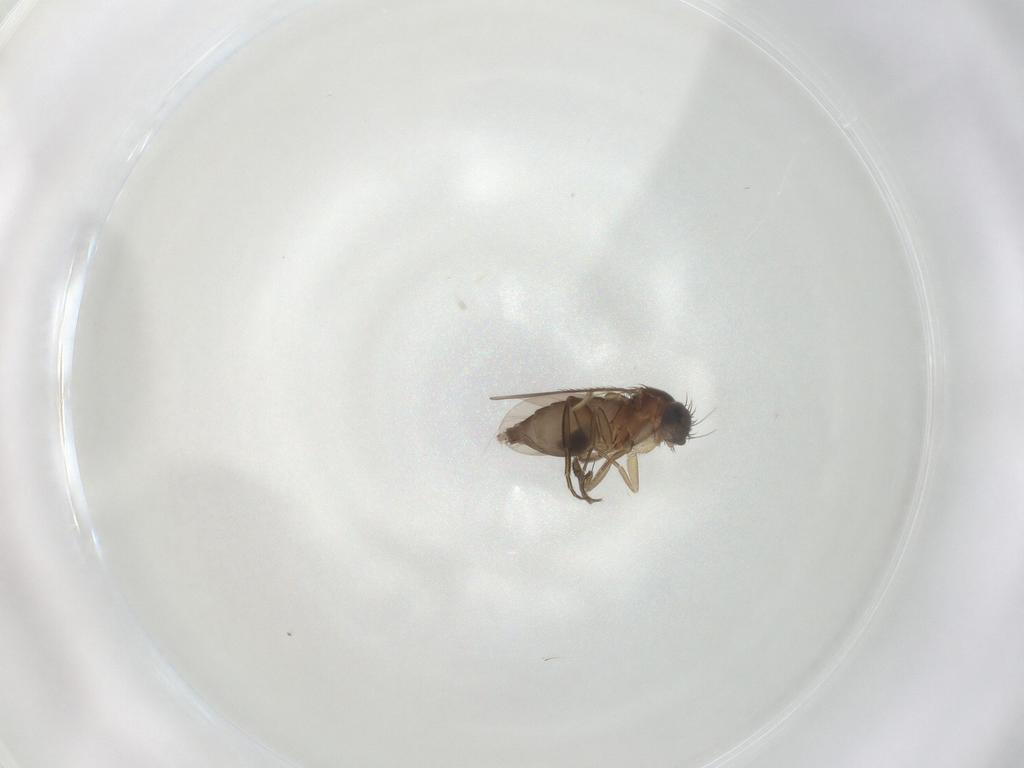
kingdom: Animalia
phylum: Arthropoda
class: Insecta
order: Diptera
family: Phoridae
